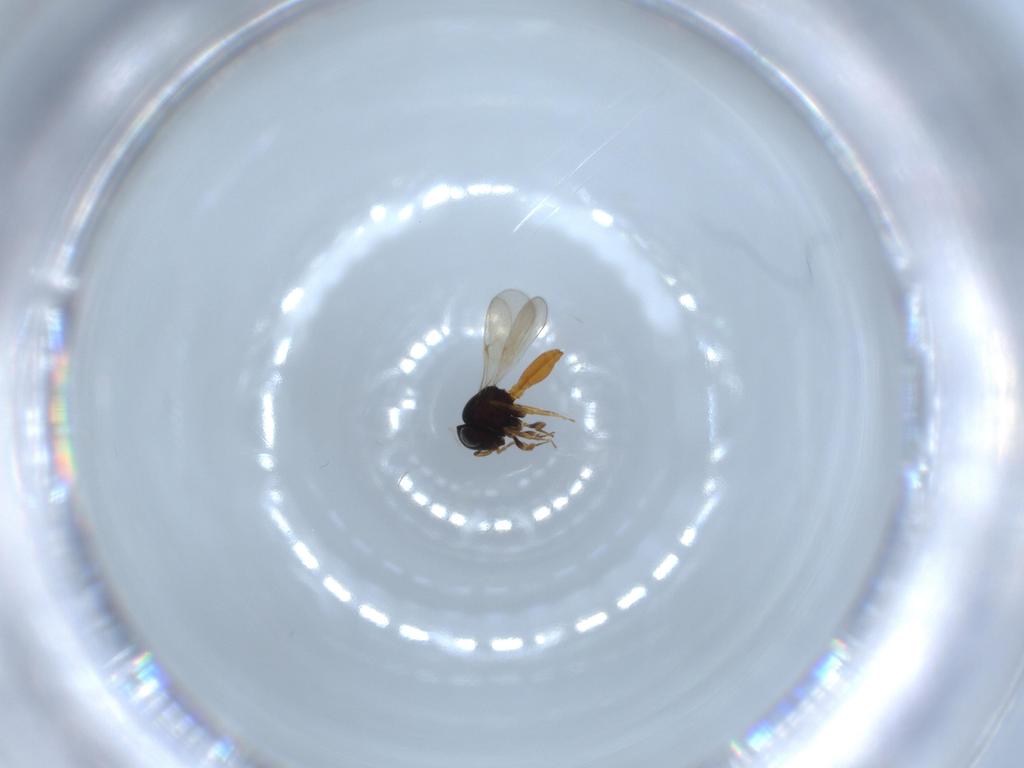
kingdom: Animalia
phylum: Arthropoda
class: Insecta
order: Hymenoptera
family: Scelionidae
